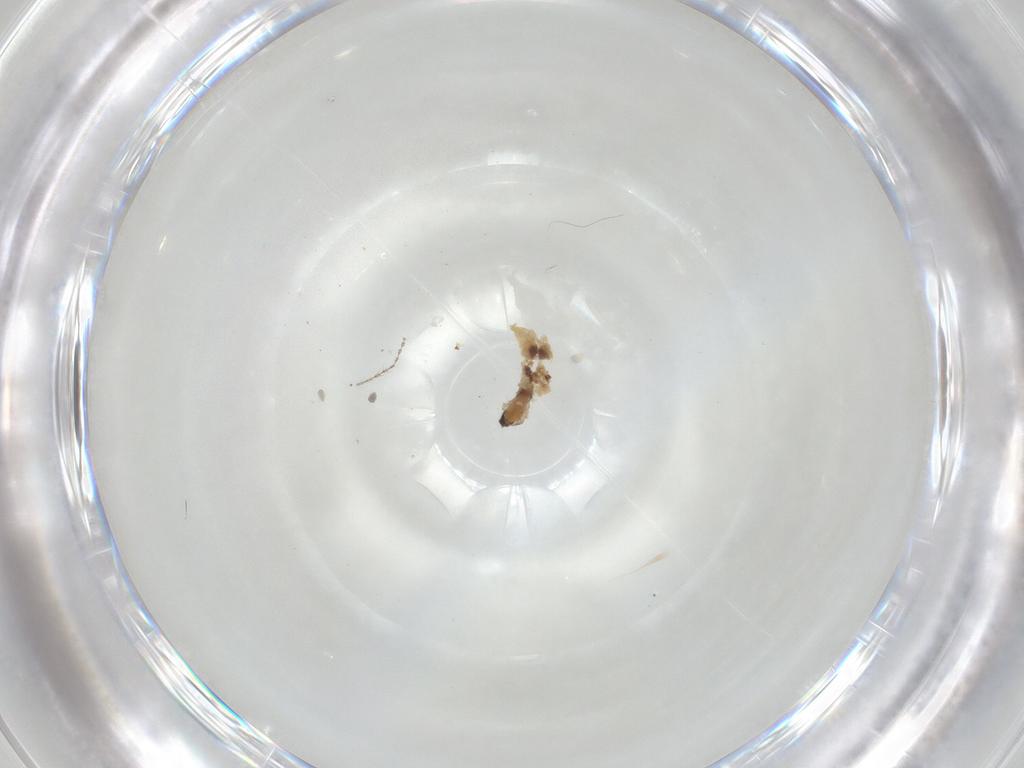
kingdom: Animalia
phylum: Arthropoda
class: Insecta
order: Diptera
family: Cecidomyiidae
